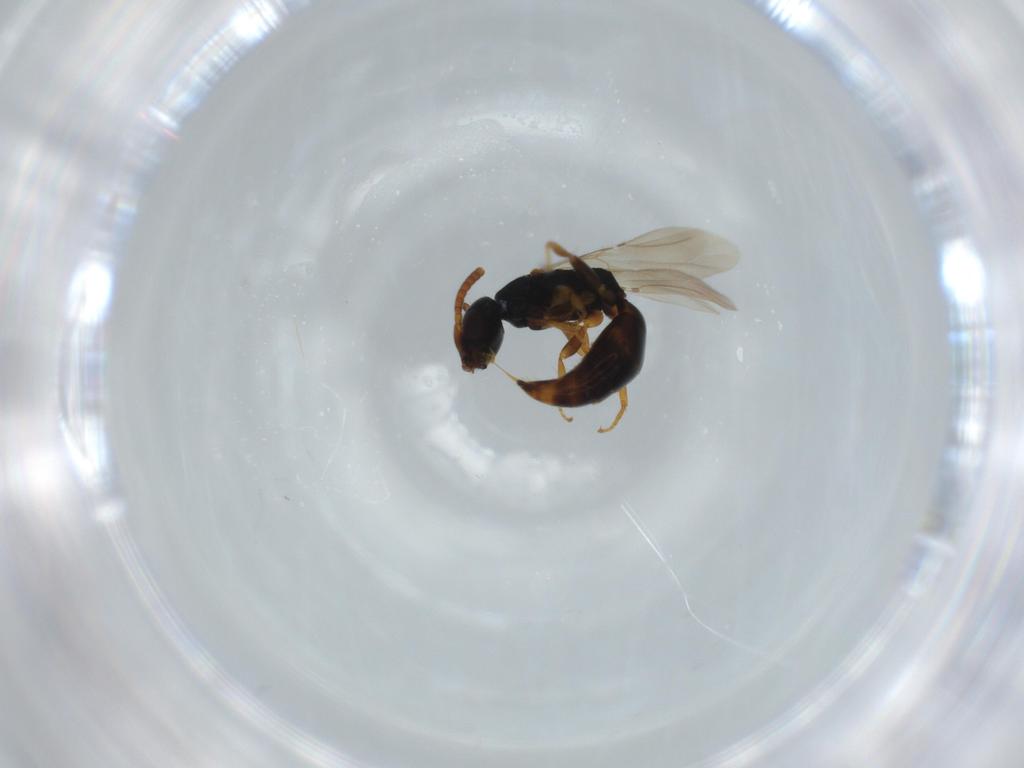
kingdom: Animalia
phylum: Arthropoda
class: Insecta
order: Hymenoptera
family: Bethylidae
